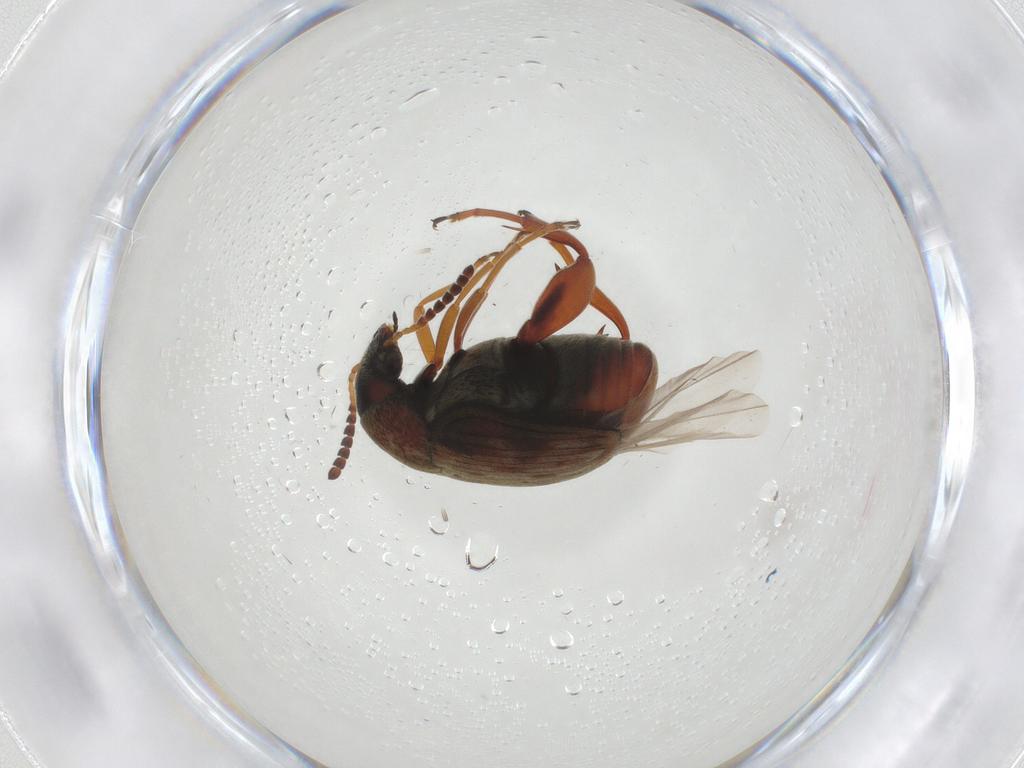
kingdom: Animalia
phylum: Arthropoda
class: Insecta
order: Coleoptera
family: Chrysomelidae
